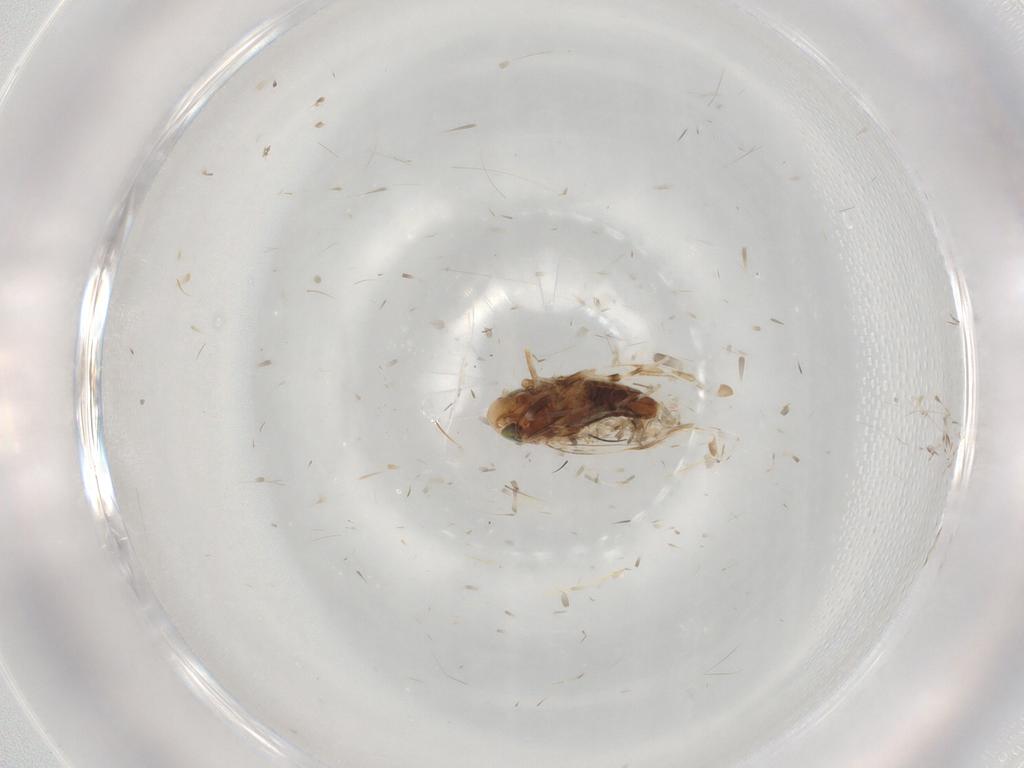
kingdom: Animalia
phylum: Arthropoda
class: Insecta
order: Hemiptera
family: Cicadellidae
